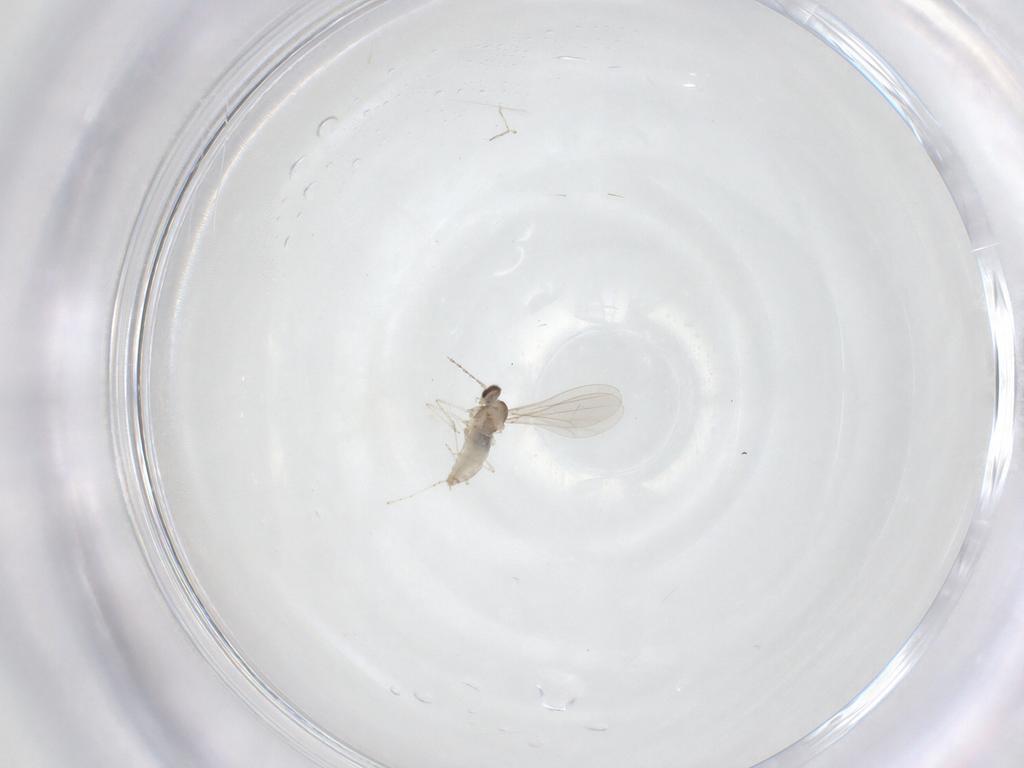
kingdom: Animalia
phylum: Arthropoda
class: Insecta
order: Diptera
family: Cecidomyiidae
